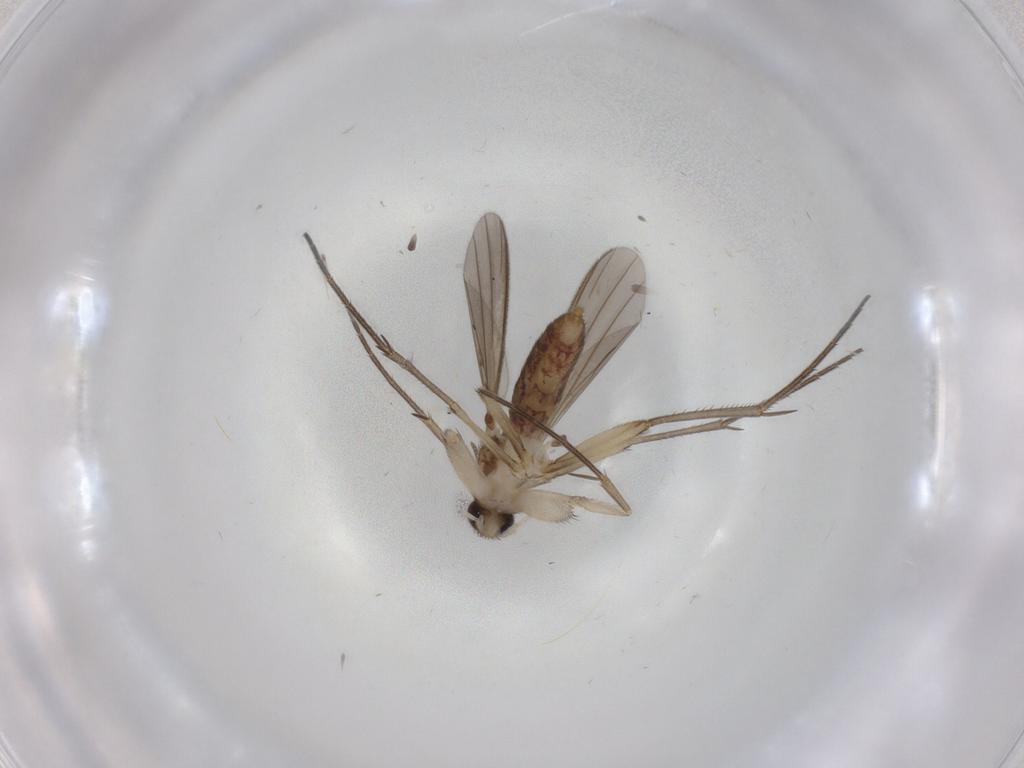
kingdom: Animalia
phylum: Arthropoda
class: Insecta
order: Diptera
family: Mycetophilidae
